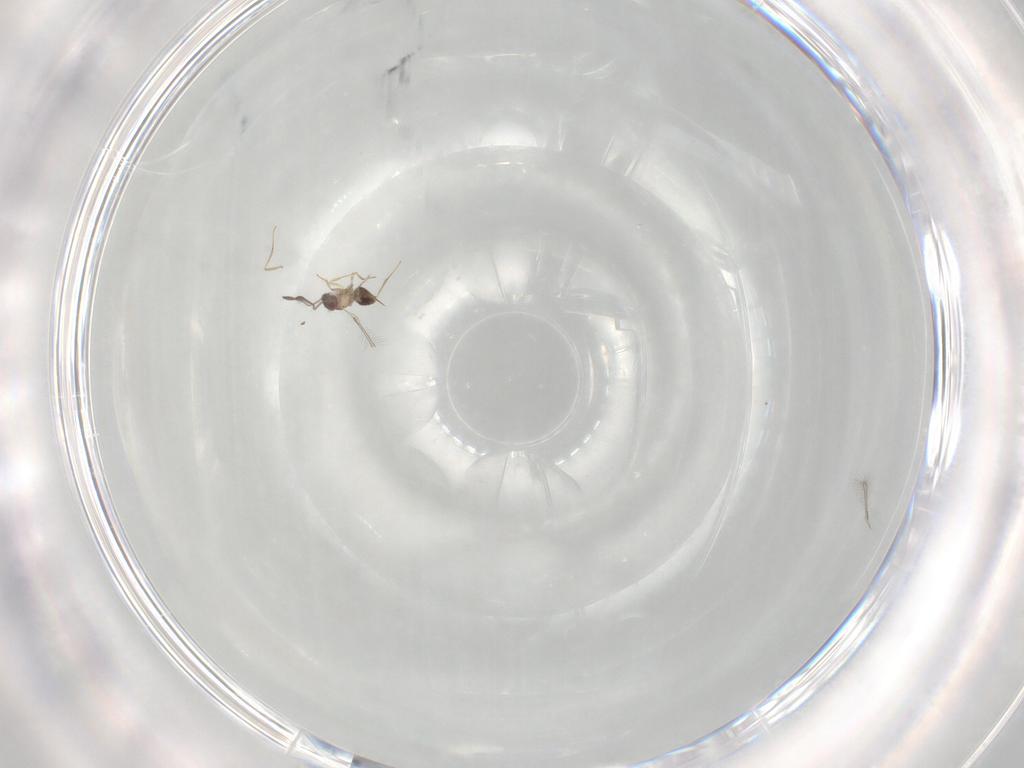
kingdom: Animalia
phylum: Arthropoda
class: Insecta
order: Hymenoptera
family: Mymaridae
